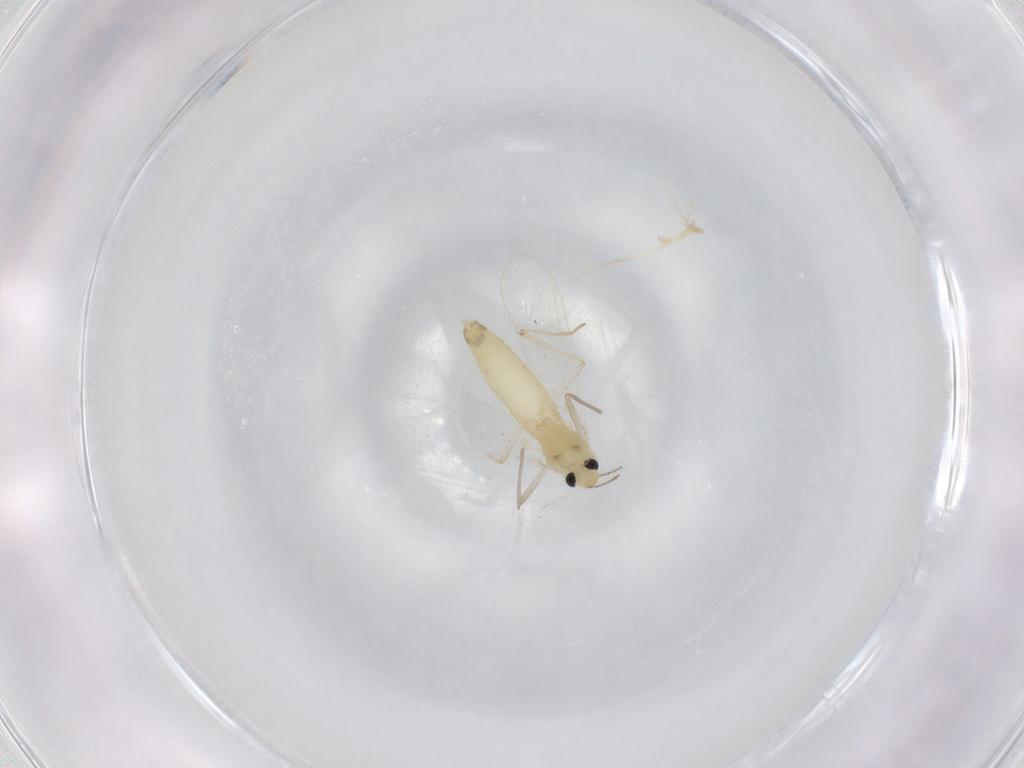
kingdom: Animalia
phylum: Arthropoda
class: Insecta
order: Diptera
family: Chironomidae
